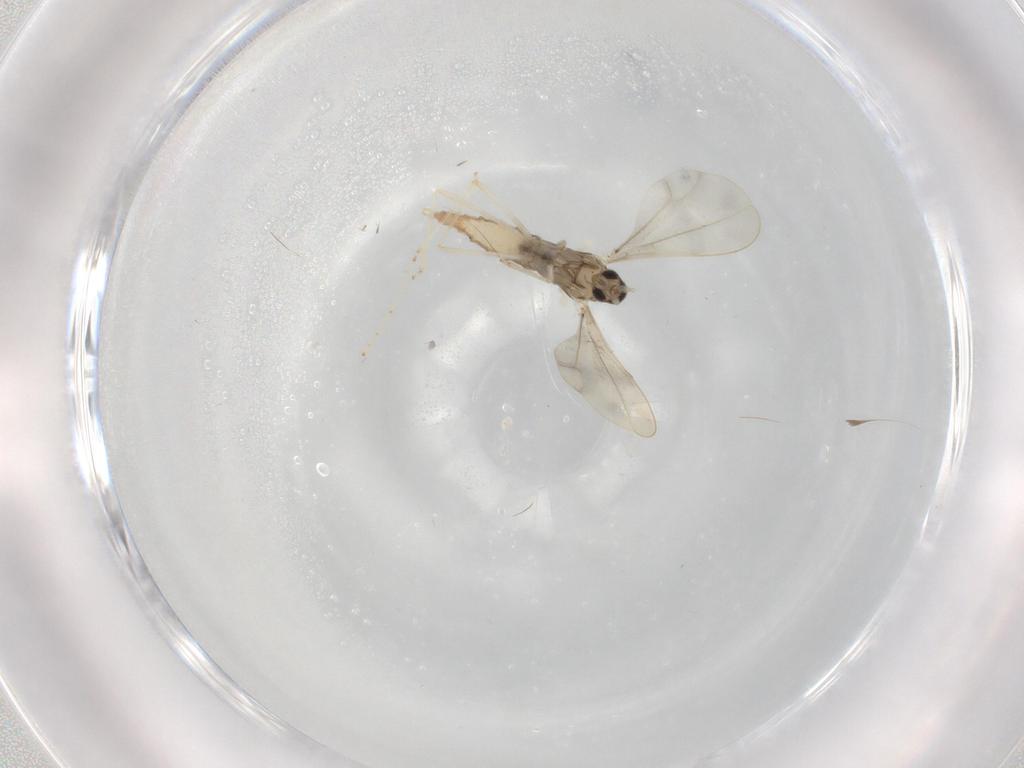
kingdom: Animalia
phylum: Arthropoda
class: Insecta
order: Diptera
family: Cecidomyiidae
